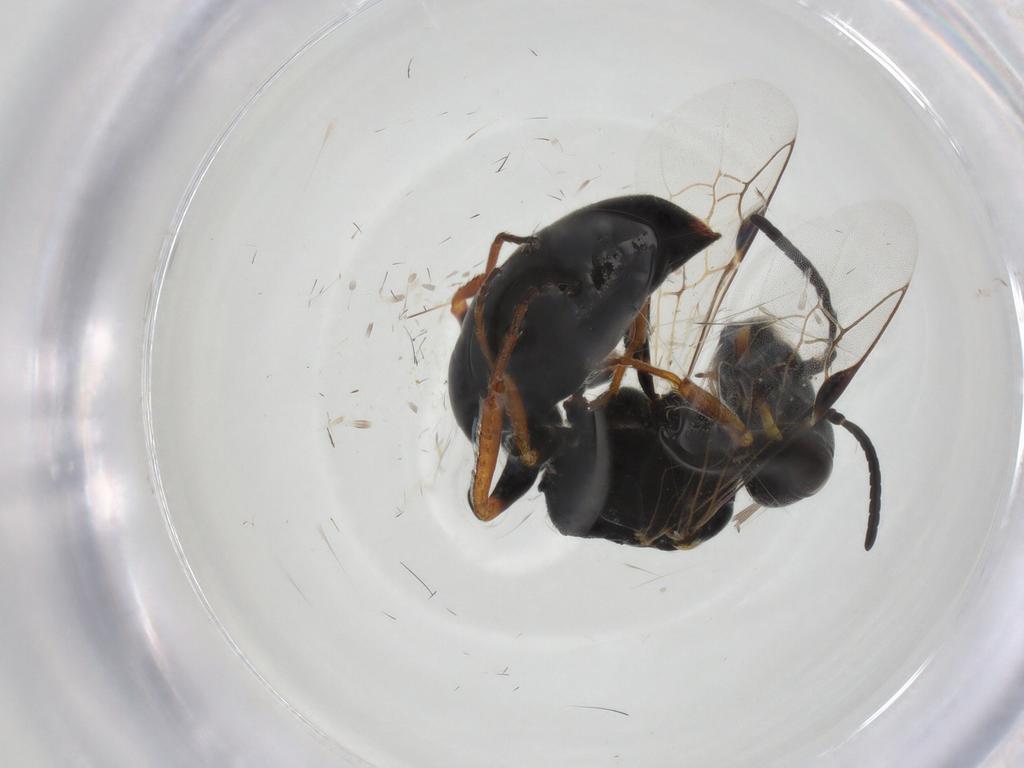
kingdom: Animalia
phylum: Arthropoda
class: Insecta
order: Hymenoptera
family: Pemphredonidae
